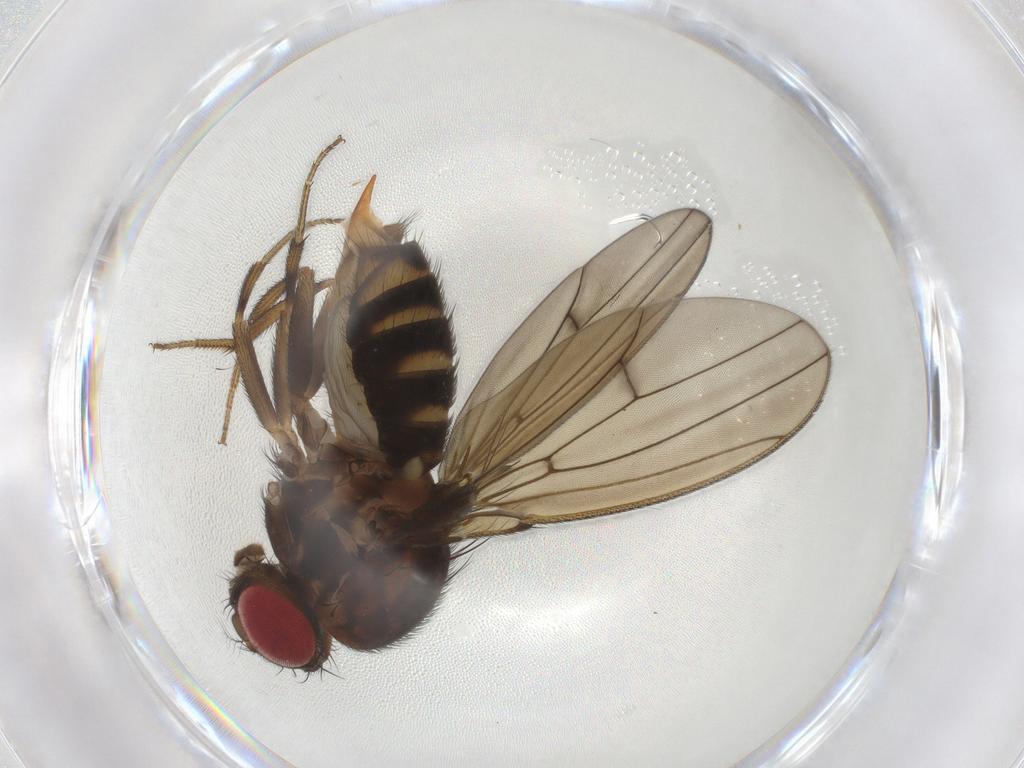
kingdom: Animalia
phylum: Arthropoda
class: Insecta
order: Diptera
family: Drosophilidae
